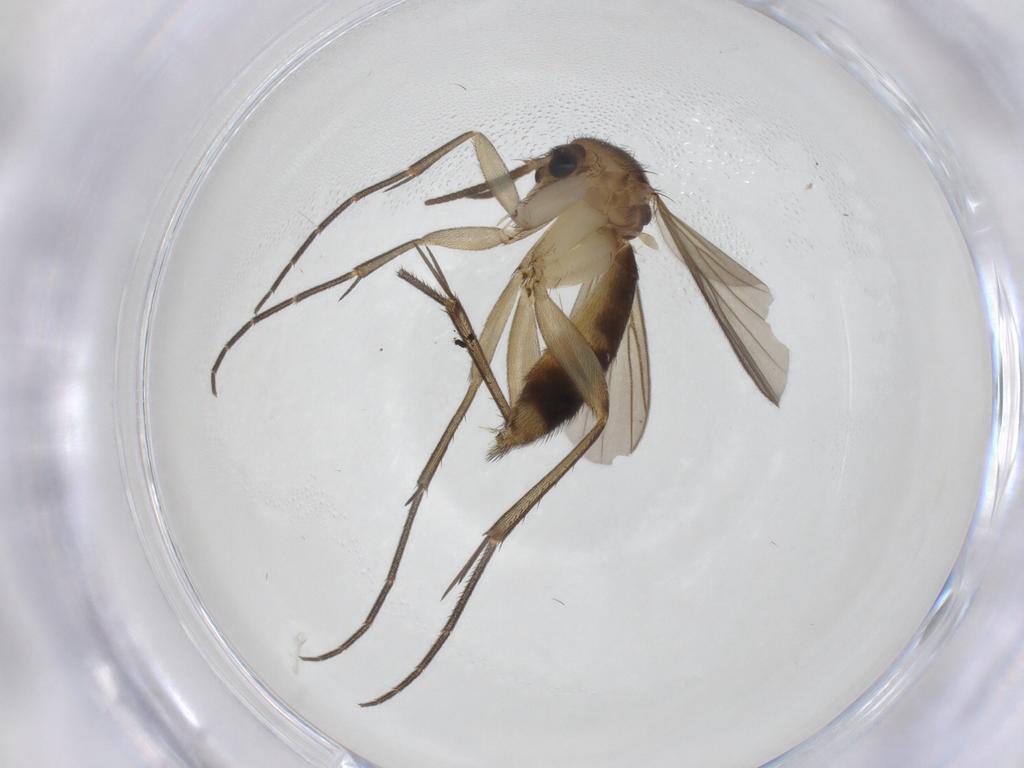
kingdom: Animalia
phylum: Arthropoda
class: Insecta
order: Diptera
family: Mycetophilidae
